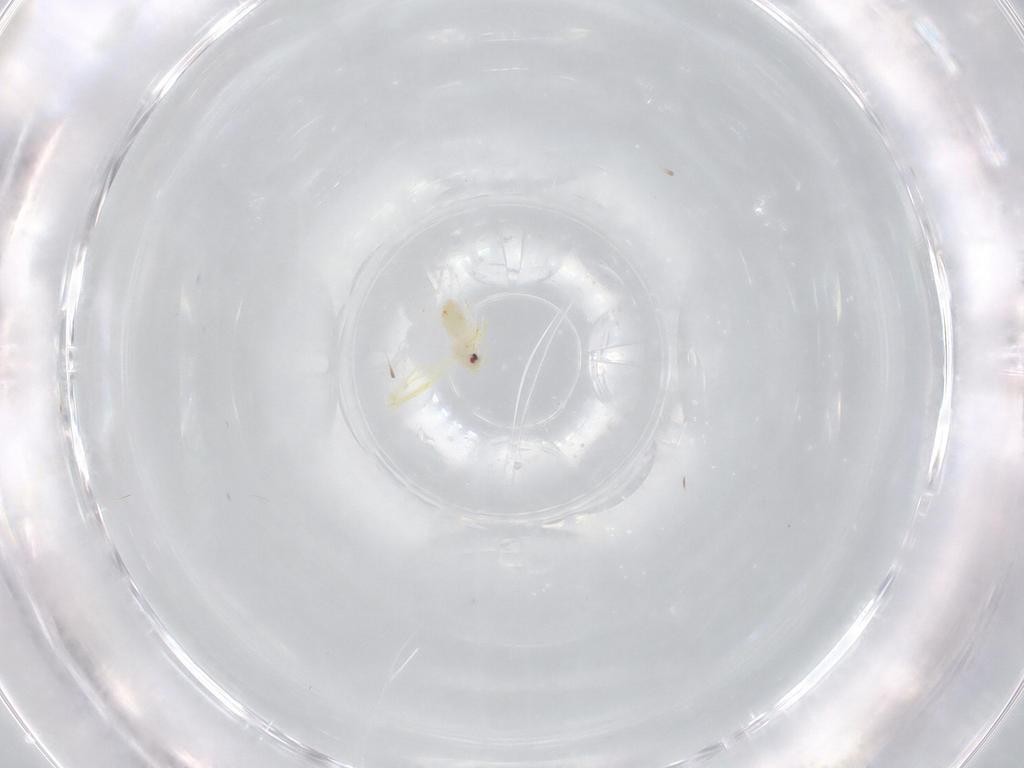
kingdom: Animalia
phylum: Arthropoda
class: Insecta
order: Hemiptera
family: Aleyrodidae
